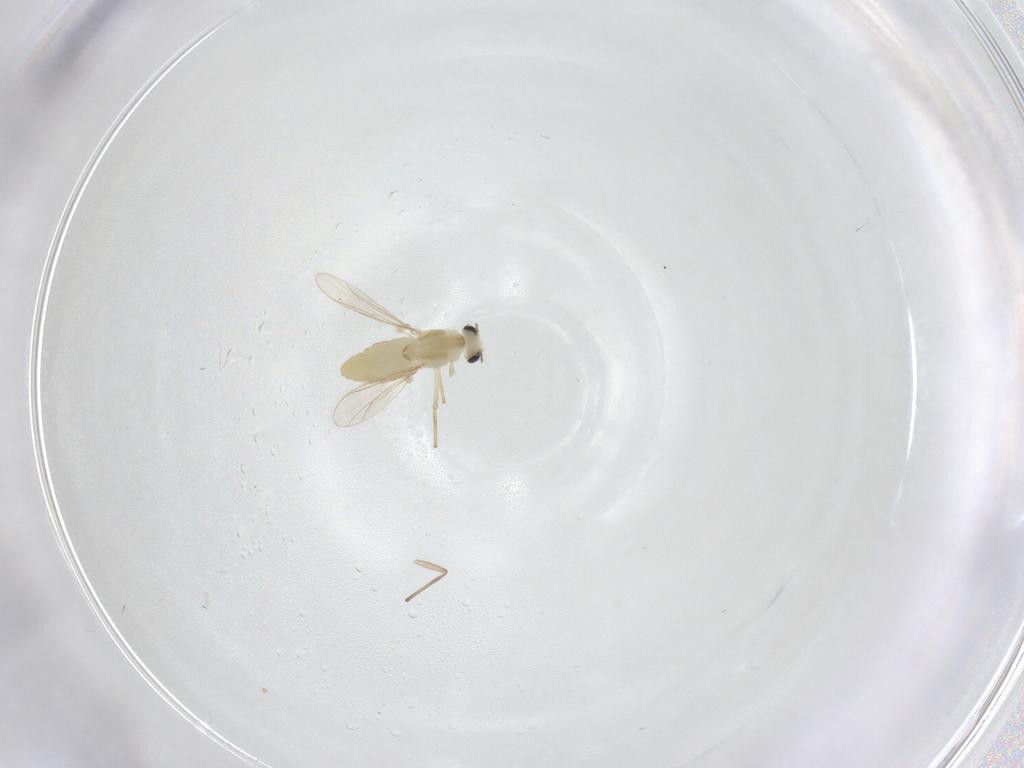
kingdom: Animalia
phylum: Arthropoda
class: Insecta
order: Diptera
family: Chironomidae
